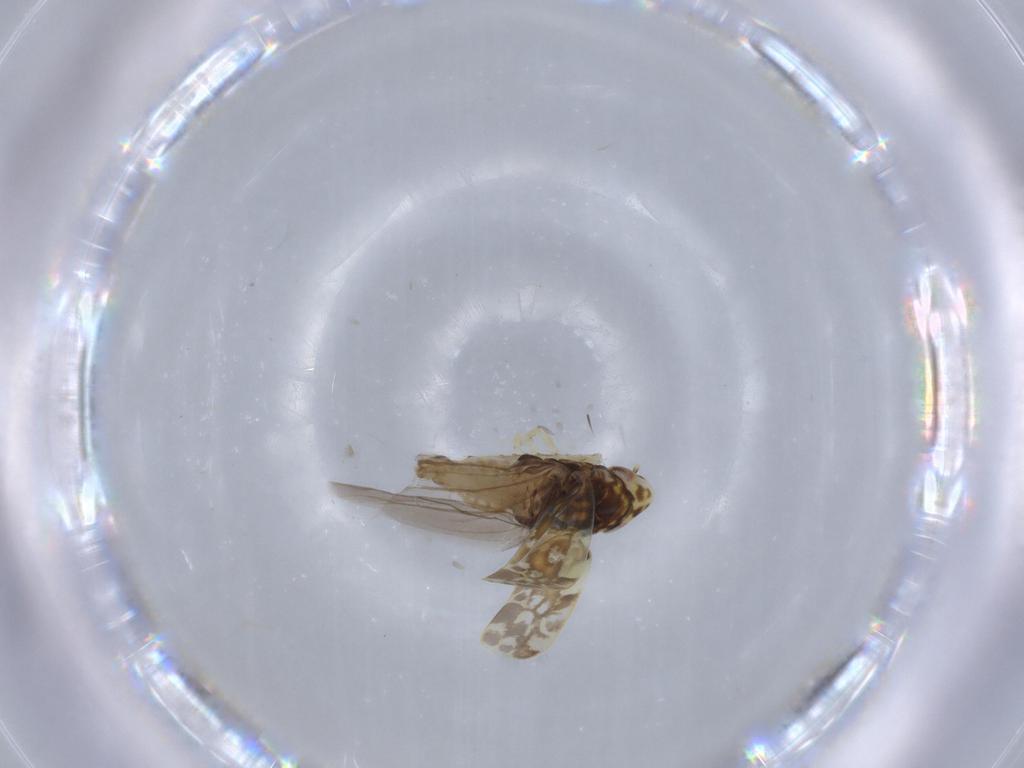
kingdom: Animalia
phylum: Arthropoda
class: Insecta
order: Hemiptera
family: Cicadellidae
